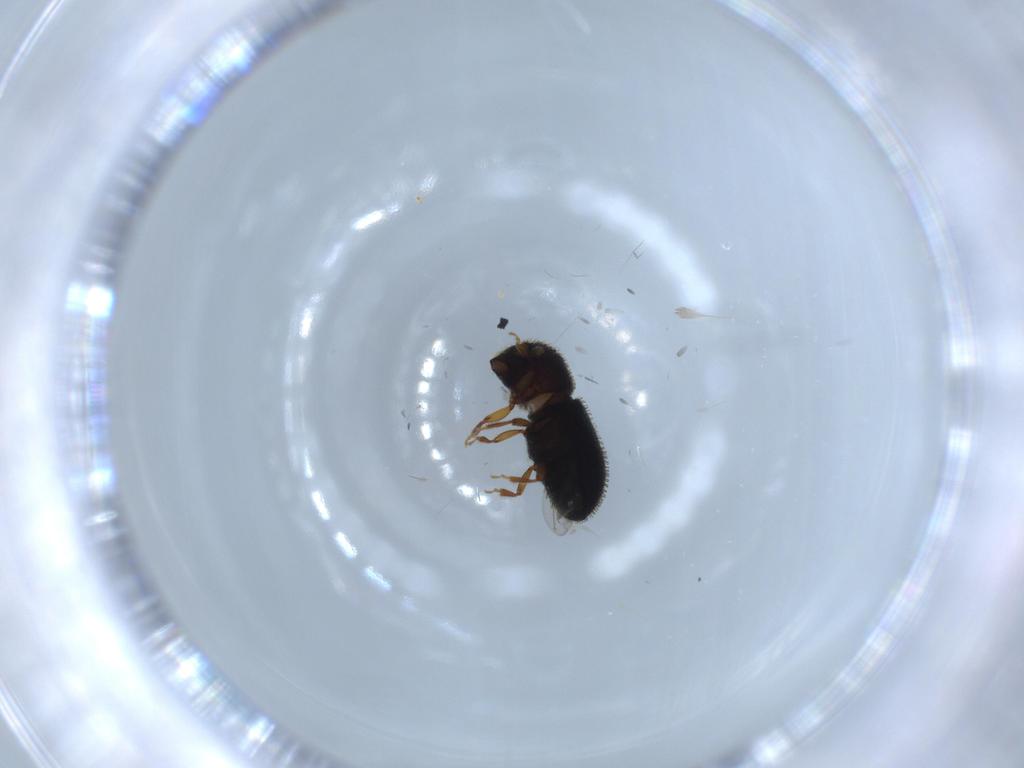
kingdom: Animalia
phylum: Arthropoda
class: Insecta
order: Coleoptera
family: Curculionidae
